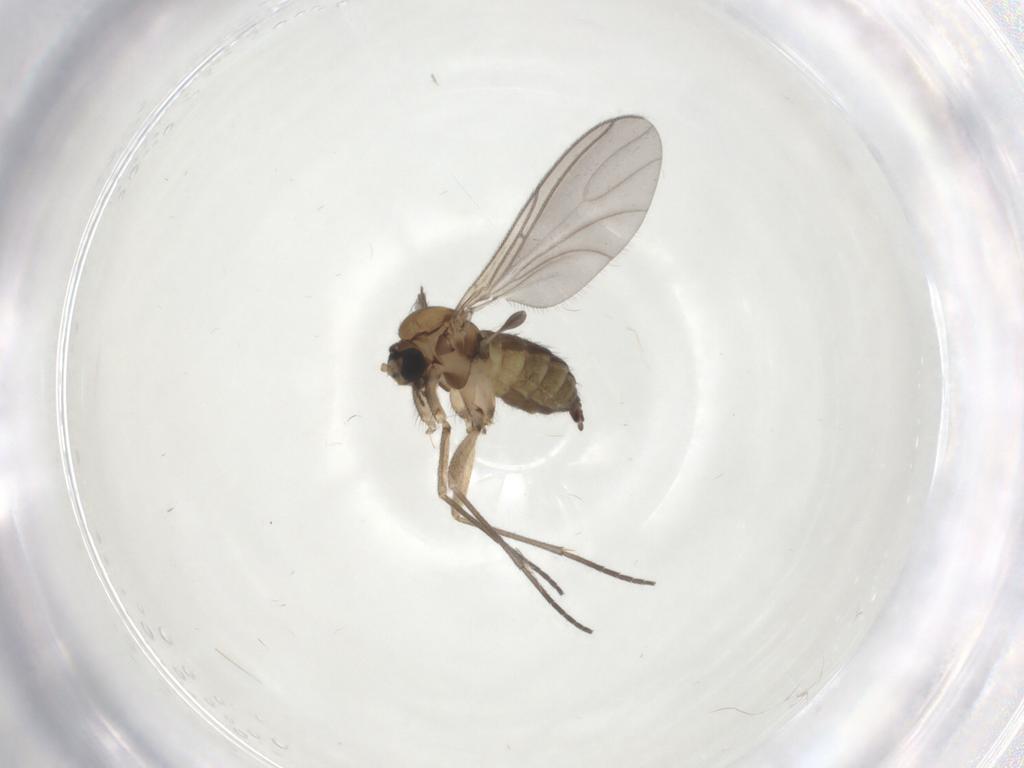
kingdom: Animalia
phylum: Arthropoda
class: Insecta
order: Diptera
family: Sciaridae
